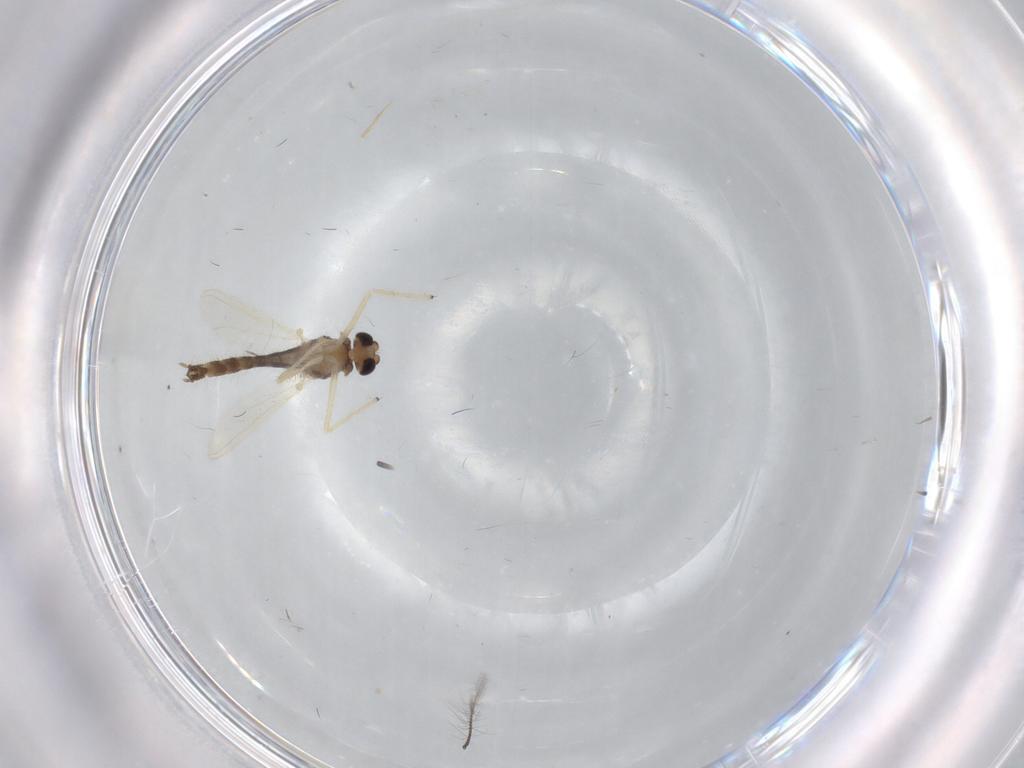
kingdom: Animalia
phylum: Arthropoda
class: Insecta
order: Diptera
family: Chironomidae
